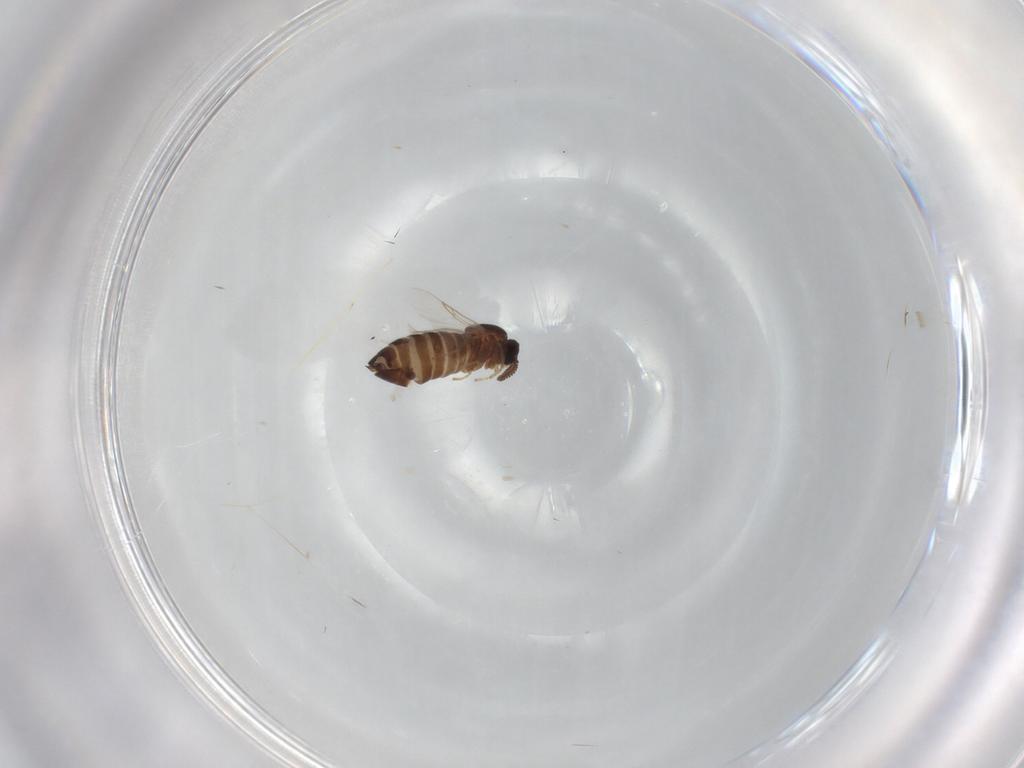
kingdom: Animalia
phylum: Arthropoda
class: Insecta
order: Diptera
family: Scatopsidae
